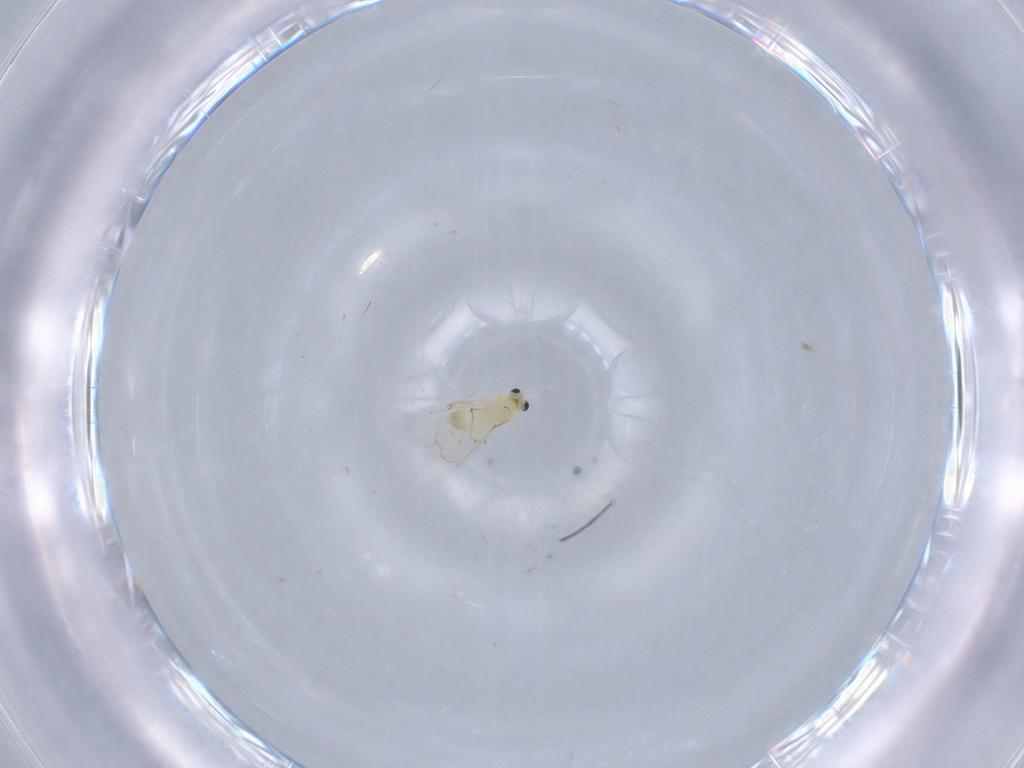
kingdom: Animalia
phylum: Arthropoda
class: Insecta
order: Hymenoptera
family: Trichogrammatidae
